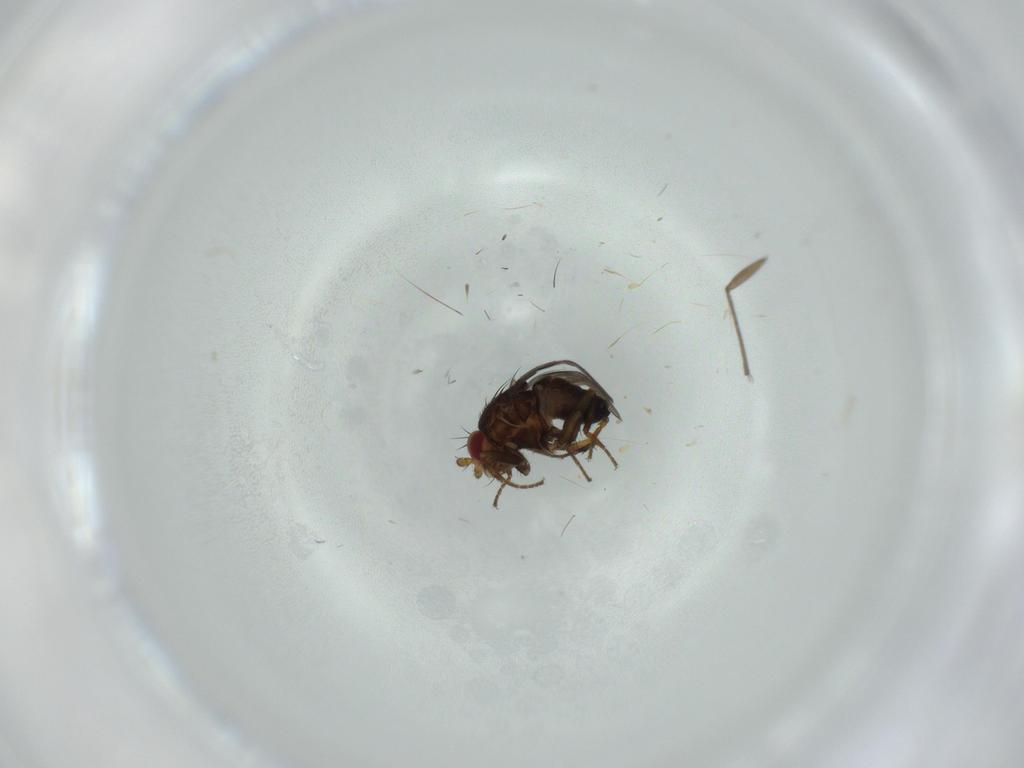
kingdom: Animalia
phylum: Arthropoda
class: Insecta
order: Diptera
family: Sphaeroceridae
